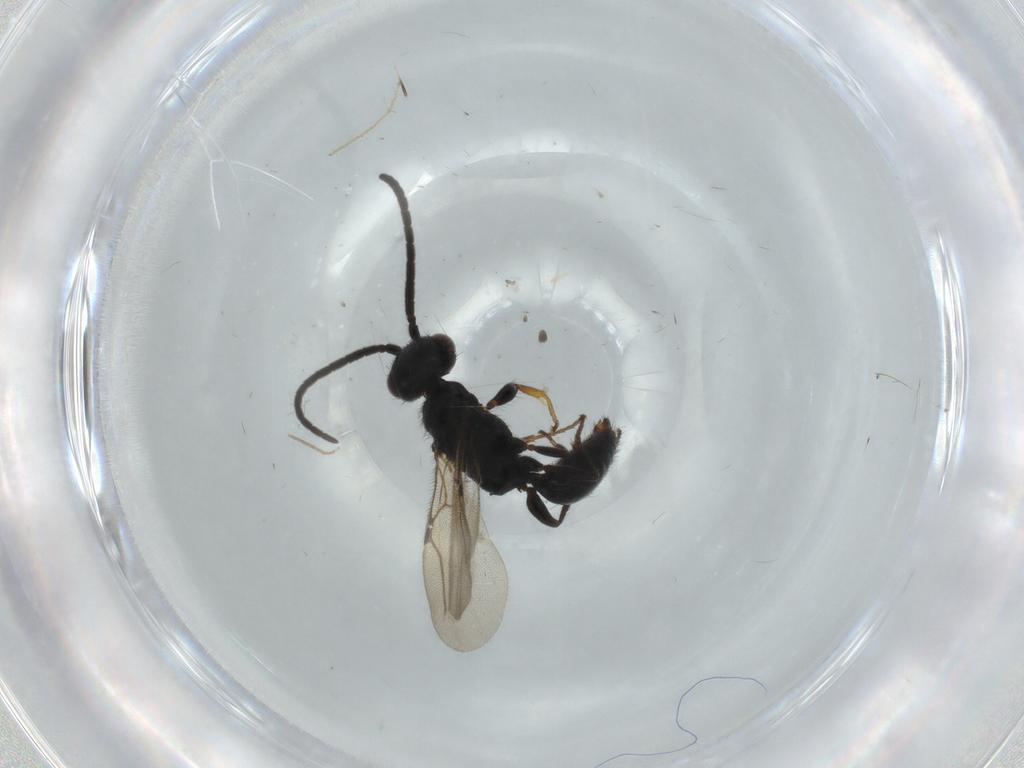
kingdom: Animalia
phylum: Arthropoda
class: Insecta
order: Hymenoptera
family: Bethylidae
